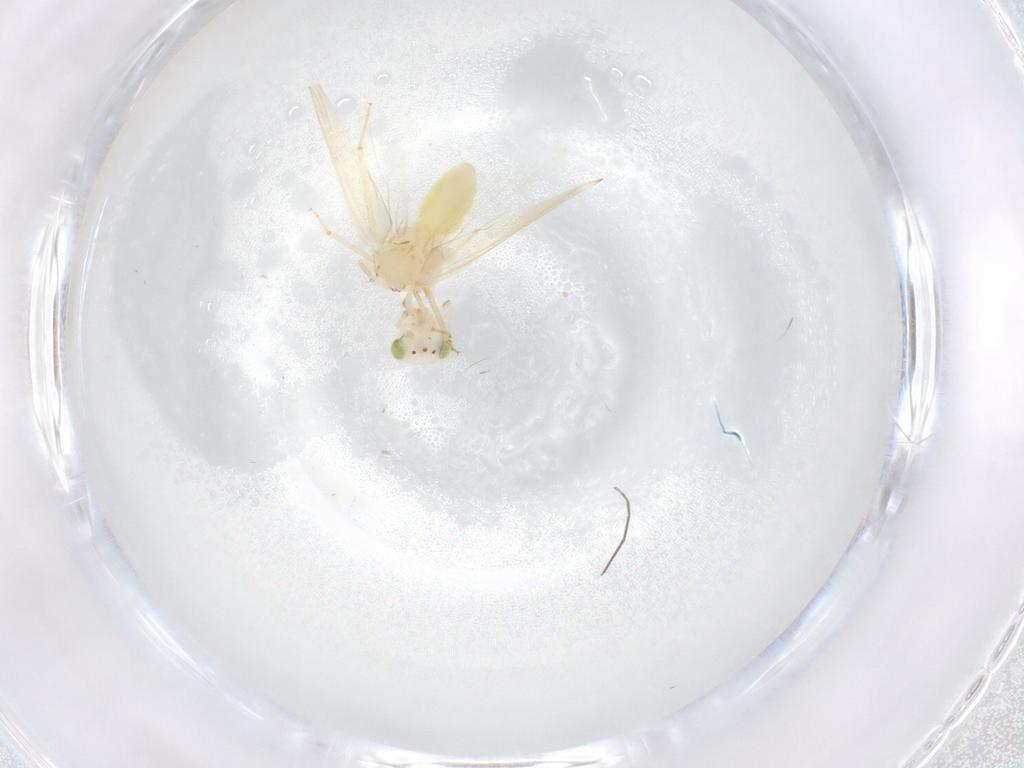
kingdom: Animalia
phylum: Arthropoda
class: Insecta
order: Psocodea
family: Lepidopsocidae
